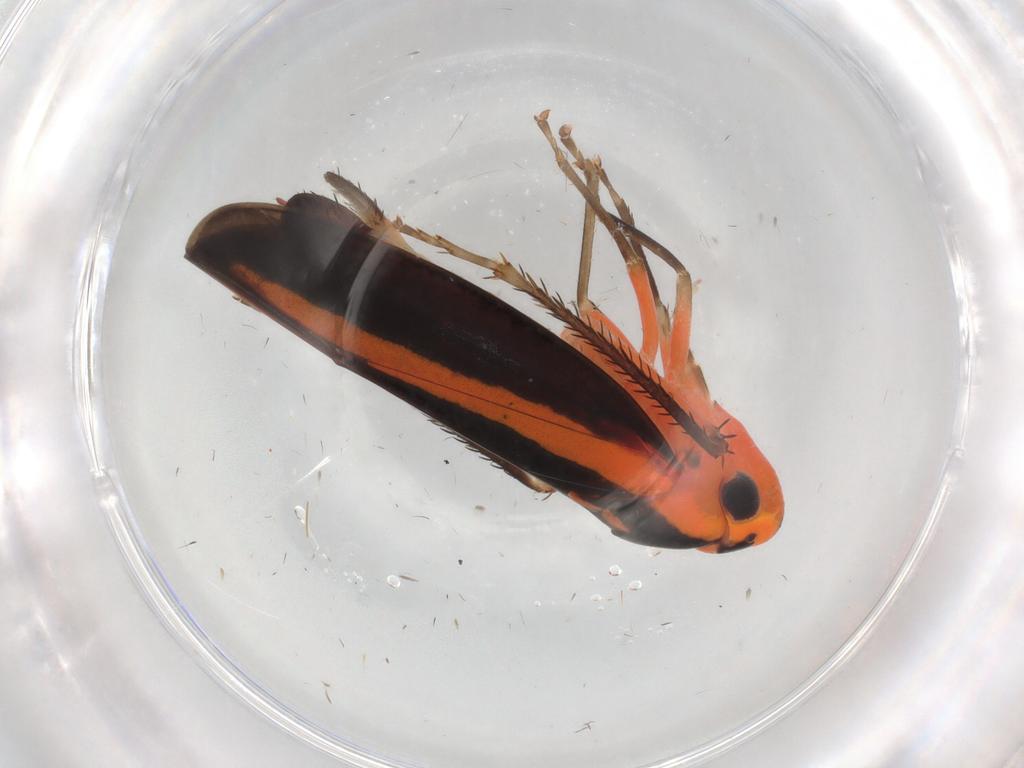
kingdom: Animalia
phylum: Arthropoda
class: Insecta
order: Hemiptera
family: Cicadellidae
